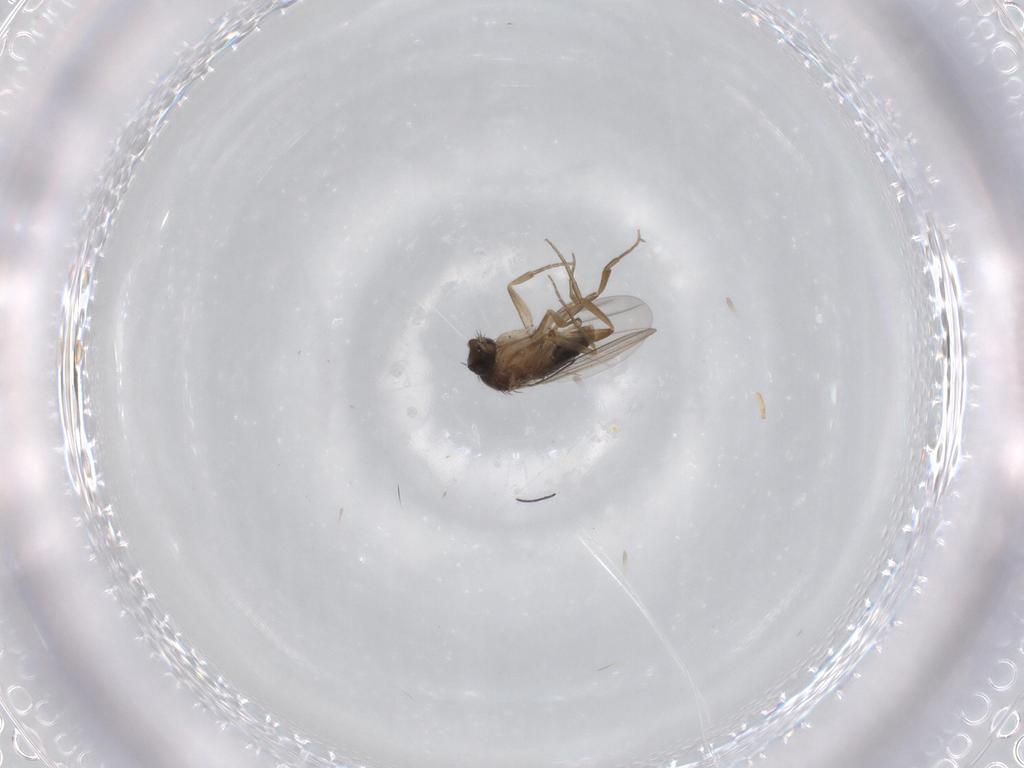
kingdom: Animalia
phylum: Arthropoda
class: Insecta
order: Diptera
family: Phoridae
